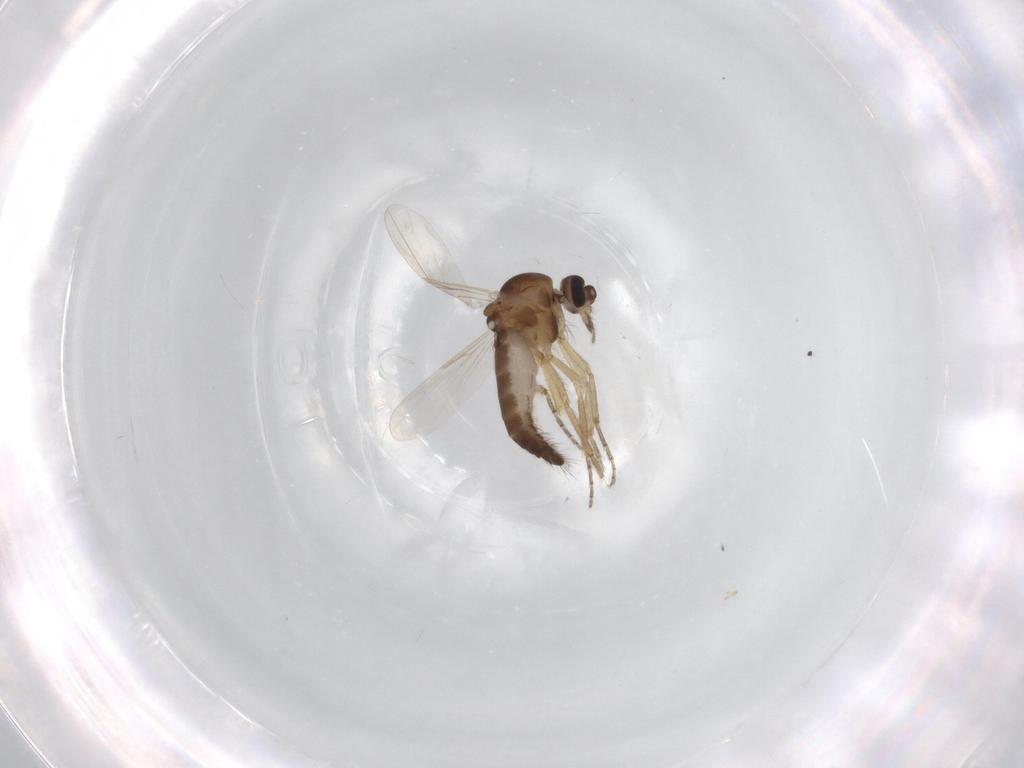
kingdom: Animalia
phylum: Arthropoda
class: Insecta
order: Diptera
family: Ceratopogonidae
